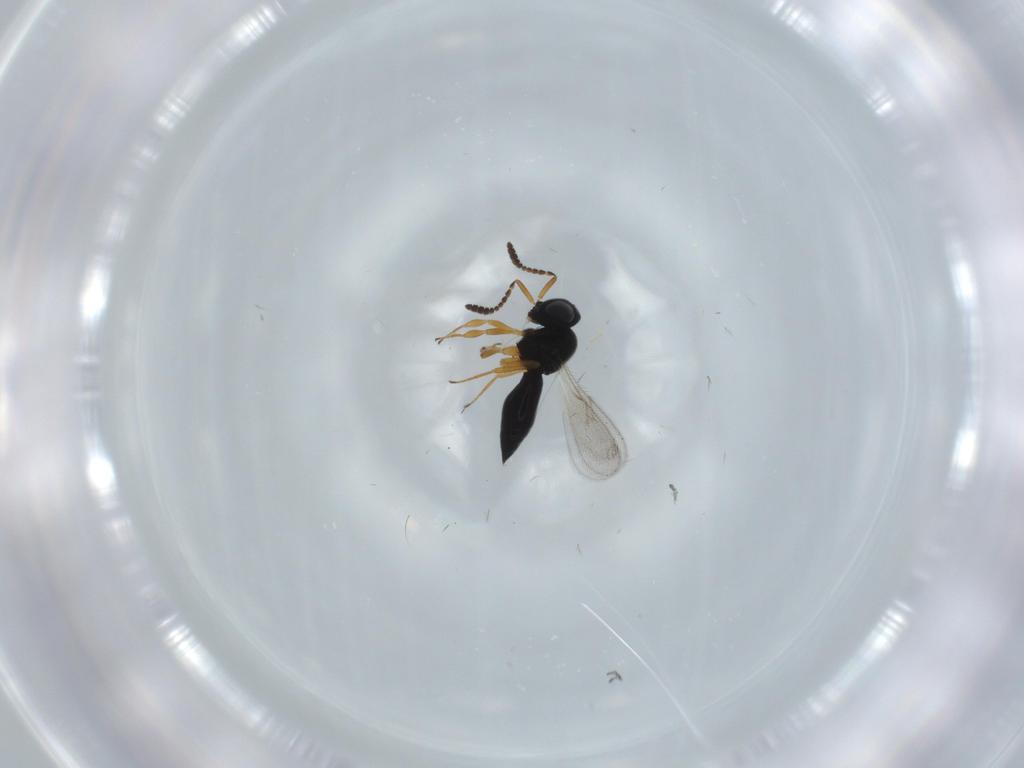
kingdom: Animalia
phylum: Arthropoda
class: Insecta
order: Hymenoptera
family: Scelionidae
